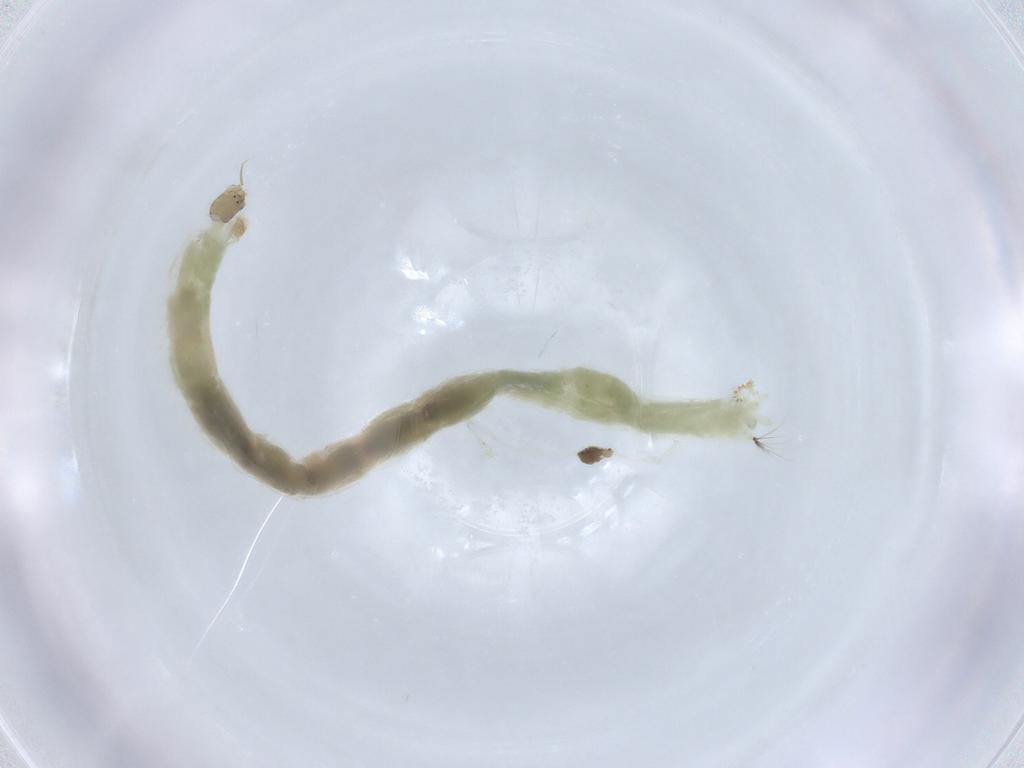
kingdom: Animalia
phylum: Arthropoda
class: Insecta
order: Diptera
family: Chironomidae
